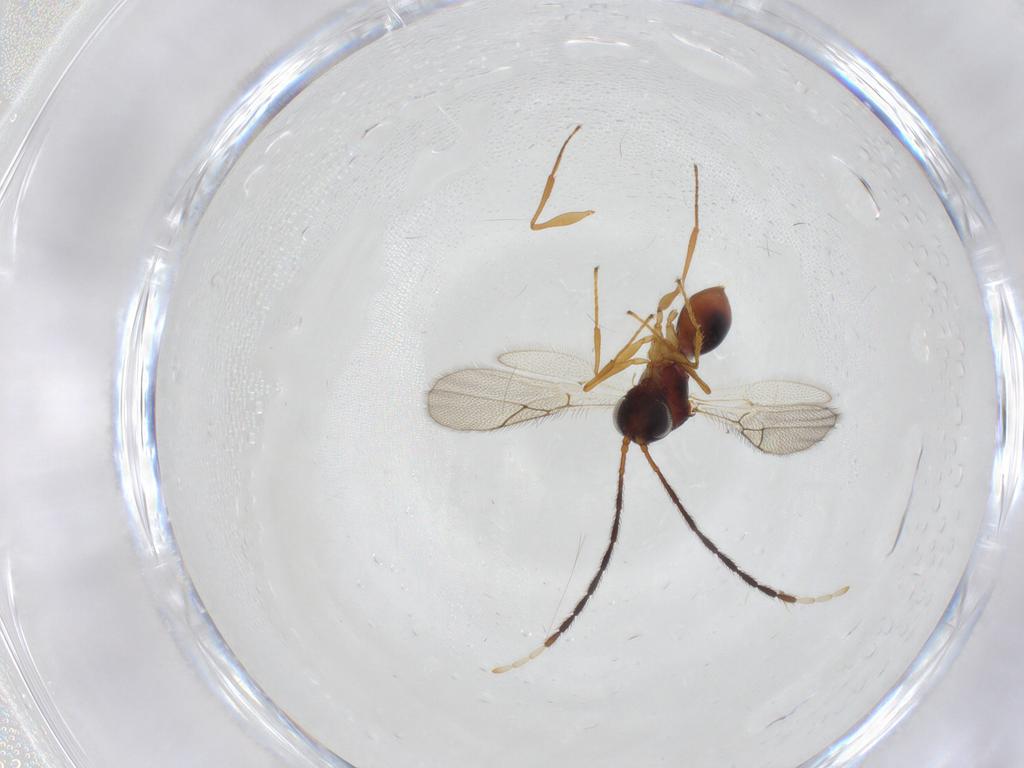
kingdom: Animalia
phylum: Arthropoda
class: Insecta
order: Hymenoptera
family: Figitidae
